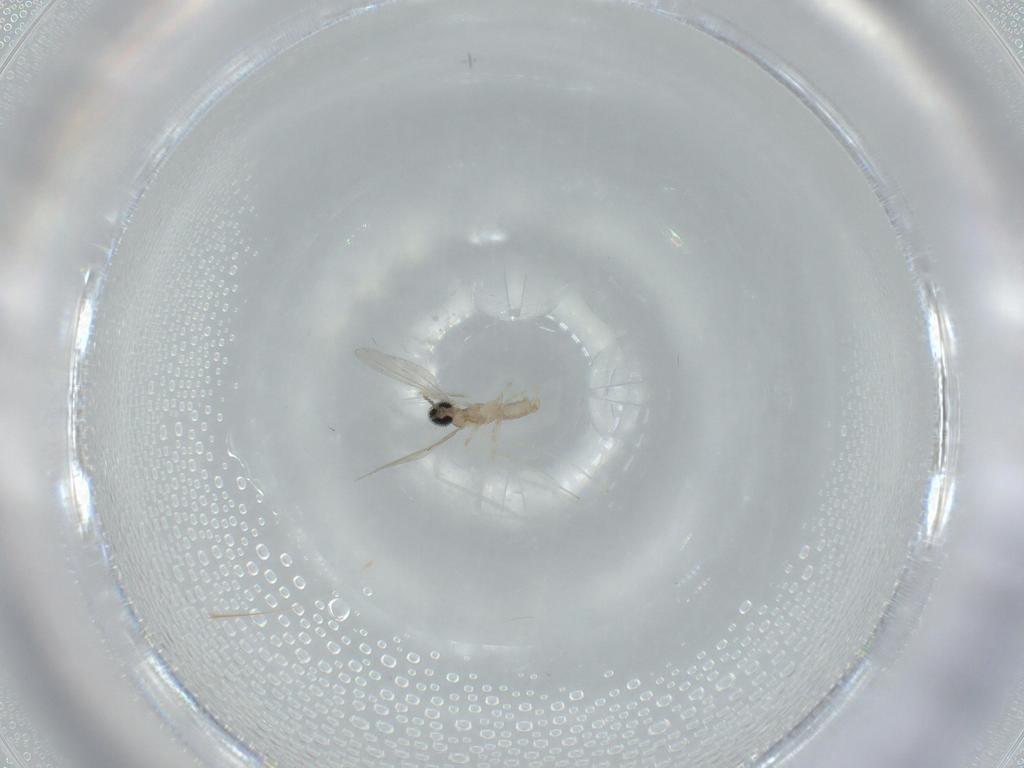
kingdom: Animalia
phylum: Arthropoda
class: Insecta
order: Diptera
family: Cecidomyiidae
